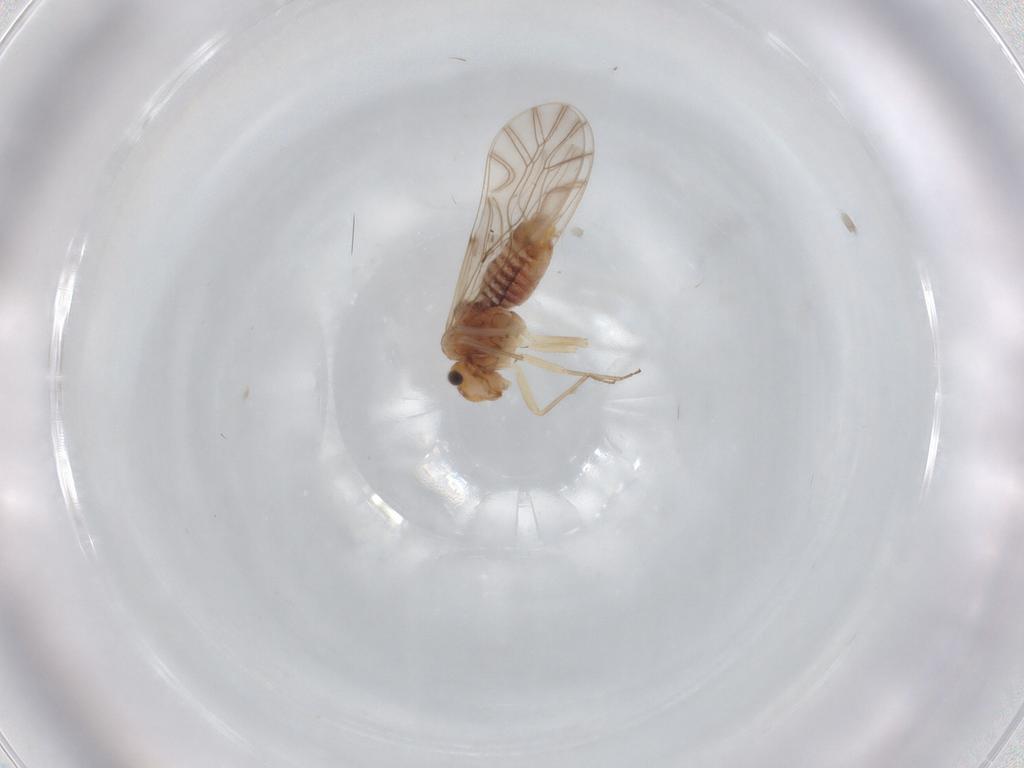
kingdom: Animalia
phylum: Arthropoda
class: Insecta
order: Psocodea
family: Lachesillidae
